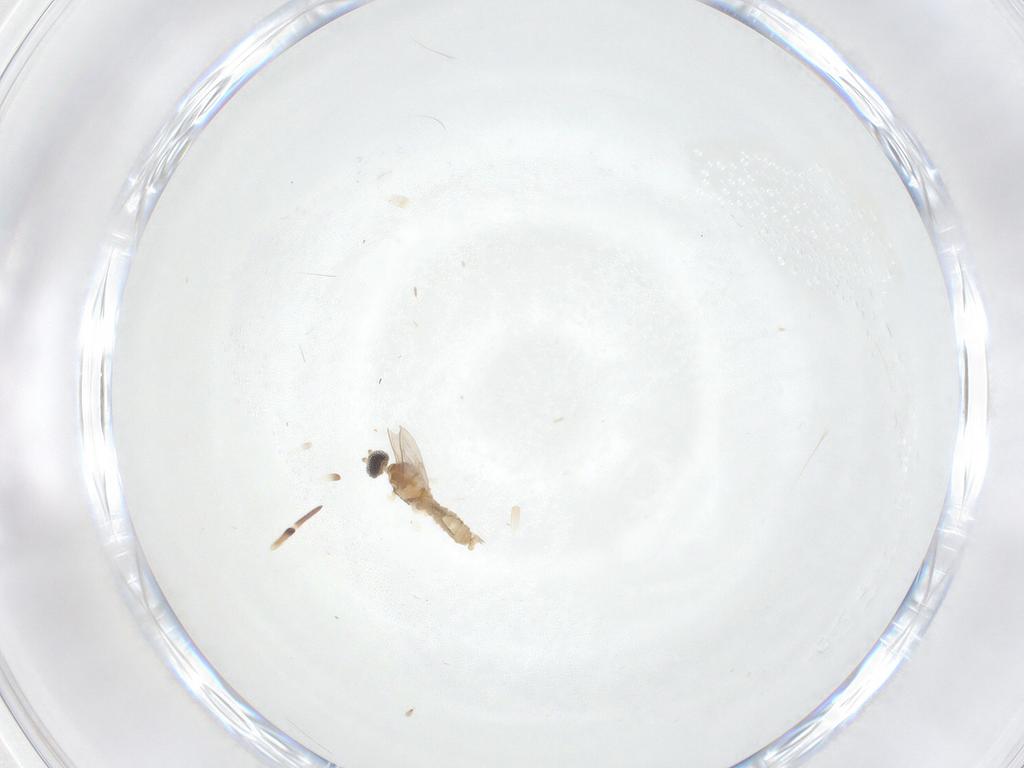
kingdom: Animalia
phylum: Arthropoda
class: Insecta
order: Diptera
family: Cecidomyiidae
